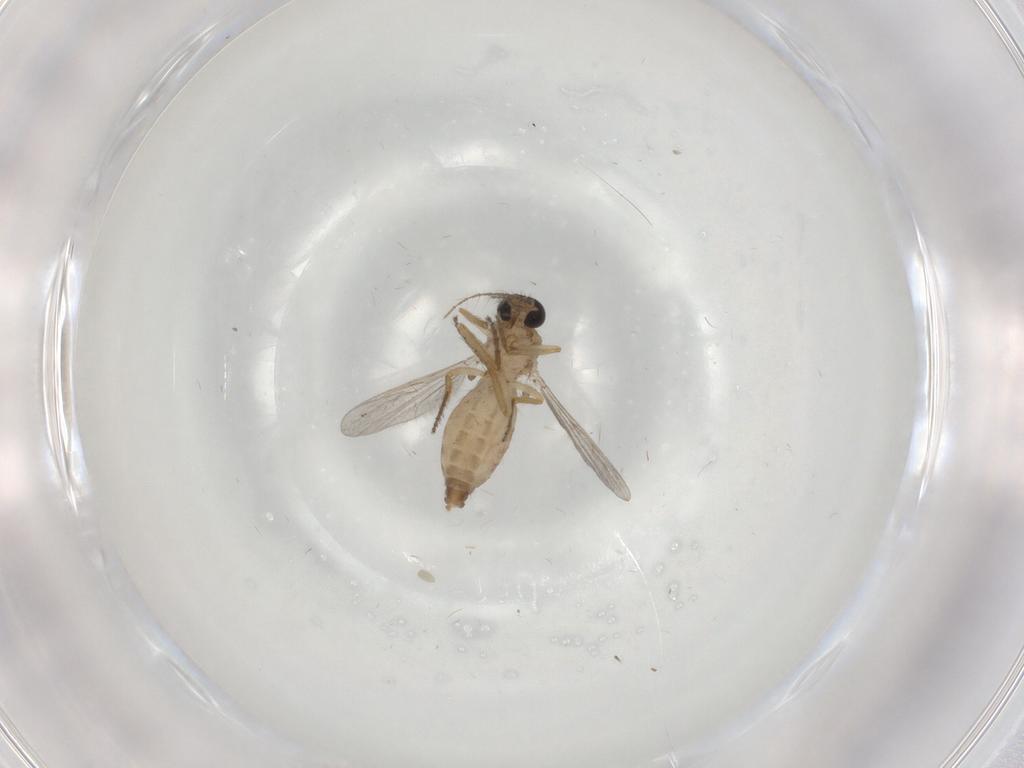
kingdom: Animalia
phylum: Arthropoda
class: Insecta
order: Diptera
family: Ceratopogonidae
